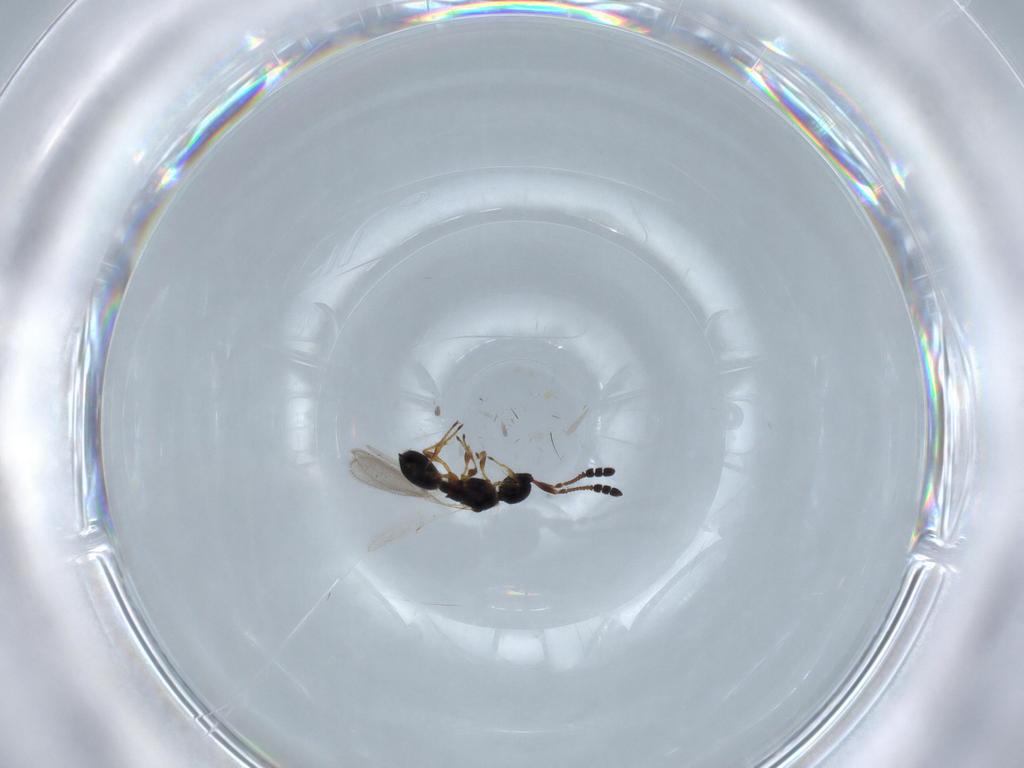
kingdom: Animalia
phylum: Arthropoda
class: Insecta
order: Hymenoptera
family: Diapriidae
